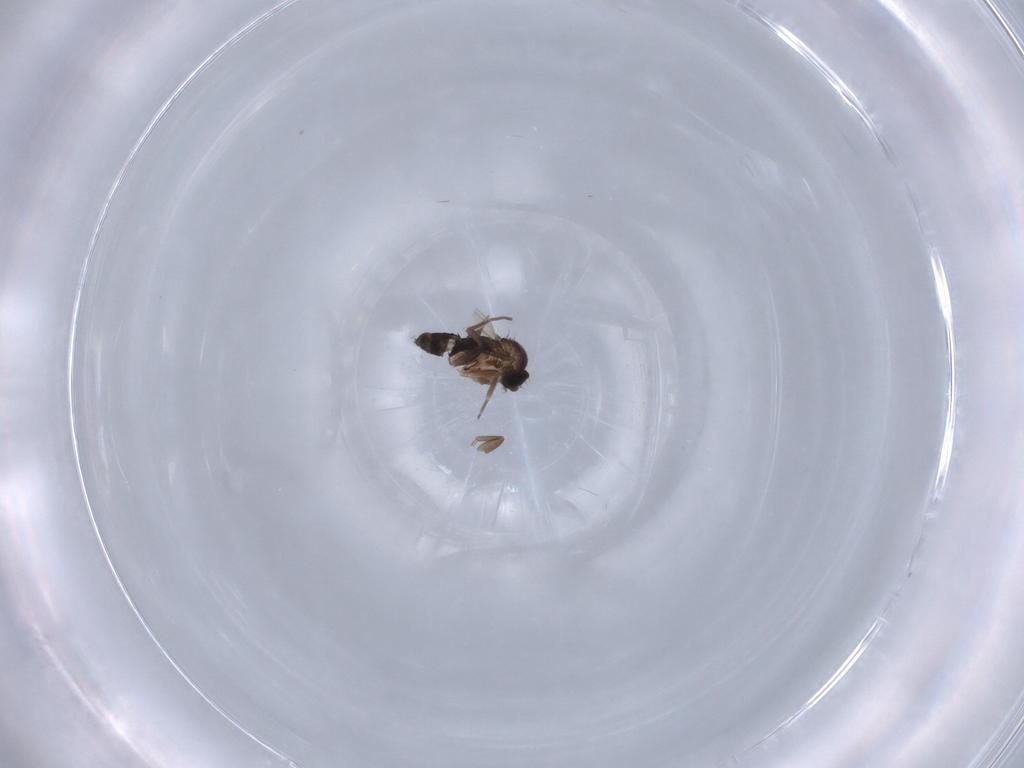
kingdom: Animalia
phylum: Arthropoda
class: Insecta
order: Diptera
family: Phoridae
